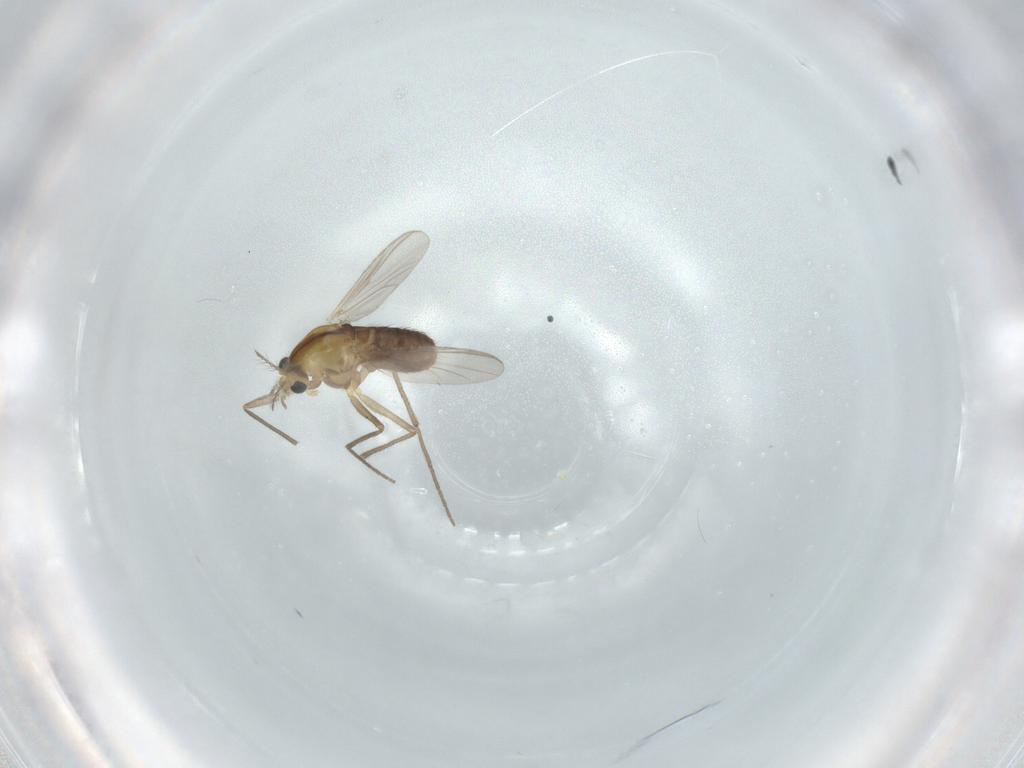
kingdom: Animalia
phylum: Arthropoda
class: Insecta
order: Diptera
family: Chironomidae
